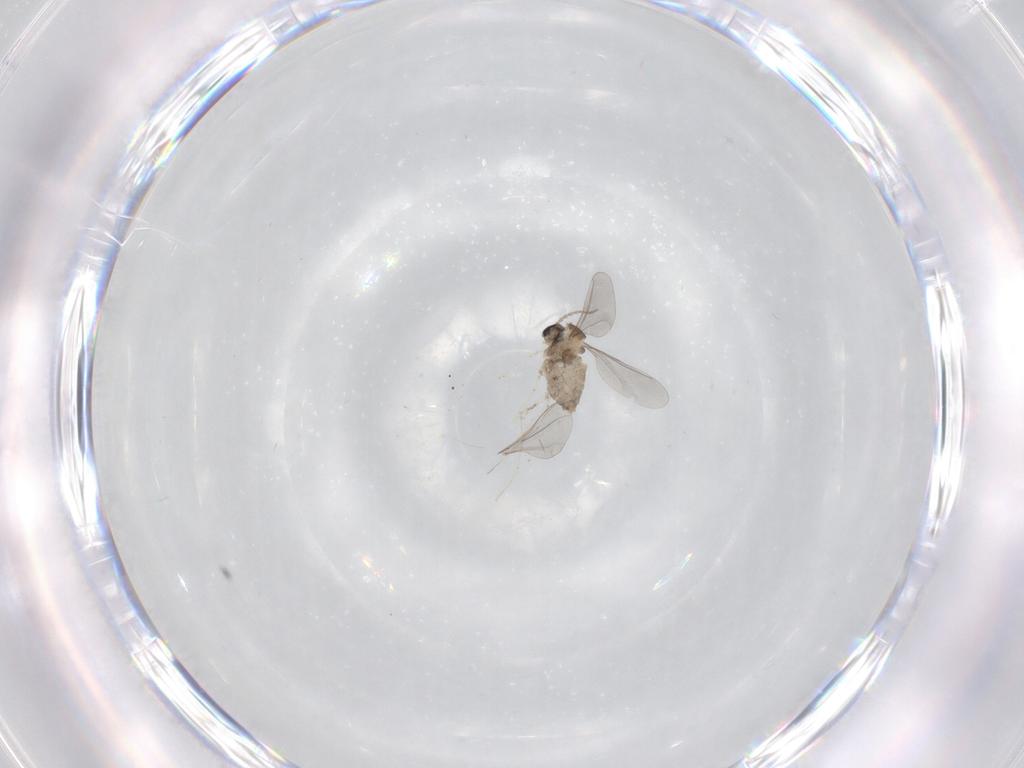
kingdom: Animalia
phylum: Arthropoda
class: Insecta
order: Diptera
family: Cecidomyiidae
